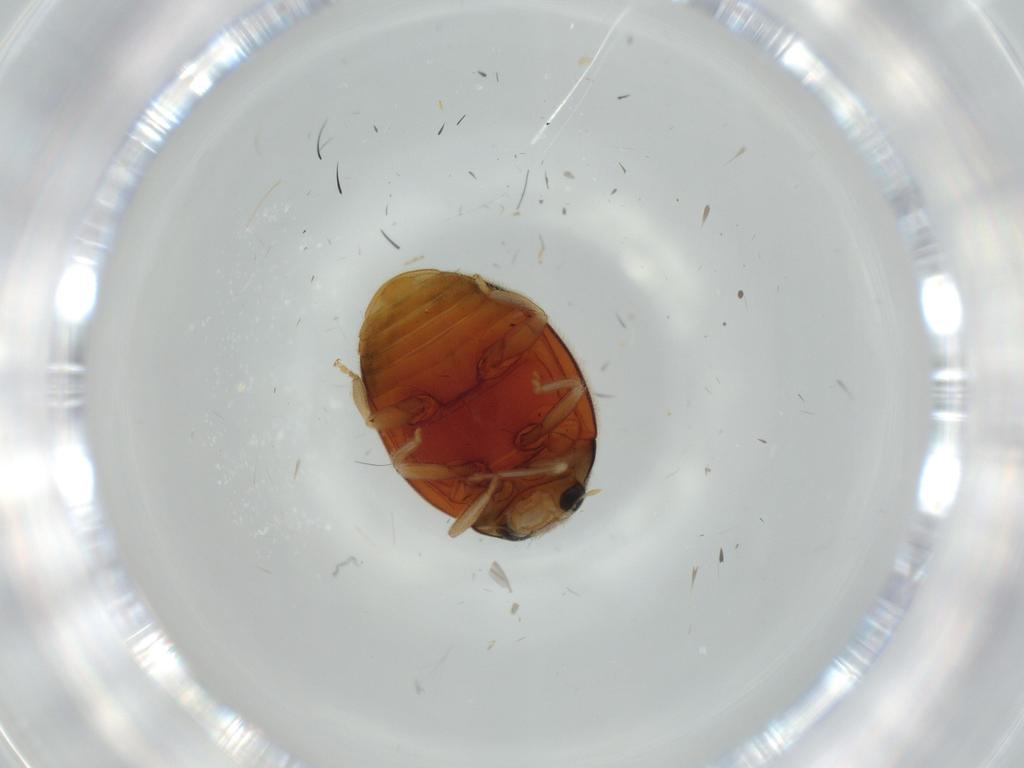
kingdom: Animalia
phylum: Arthropoda
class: Insecta
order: Coleoptera
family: Coccinellidae
